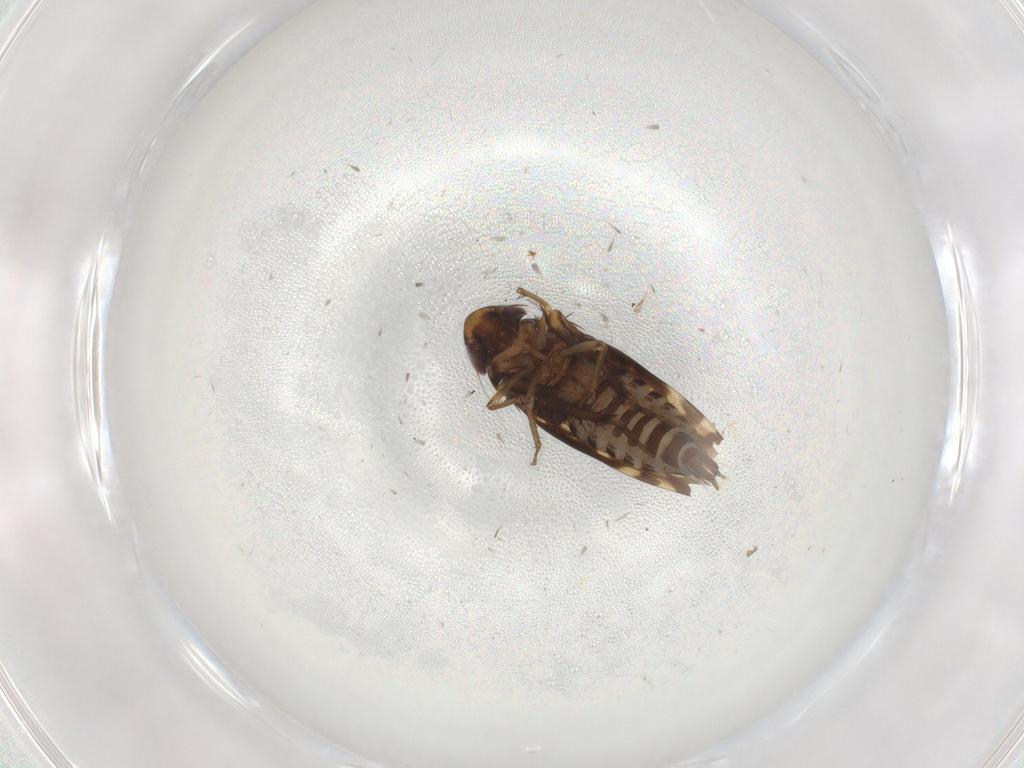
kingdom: Animalia
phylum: Arthropoda
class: Insecta
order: Hemiptera
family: Cicadellidae
